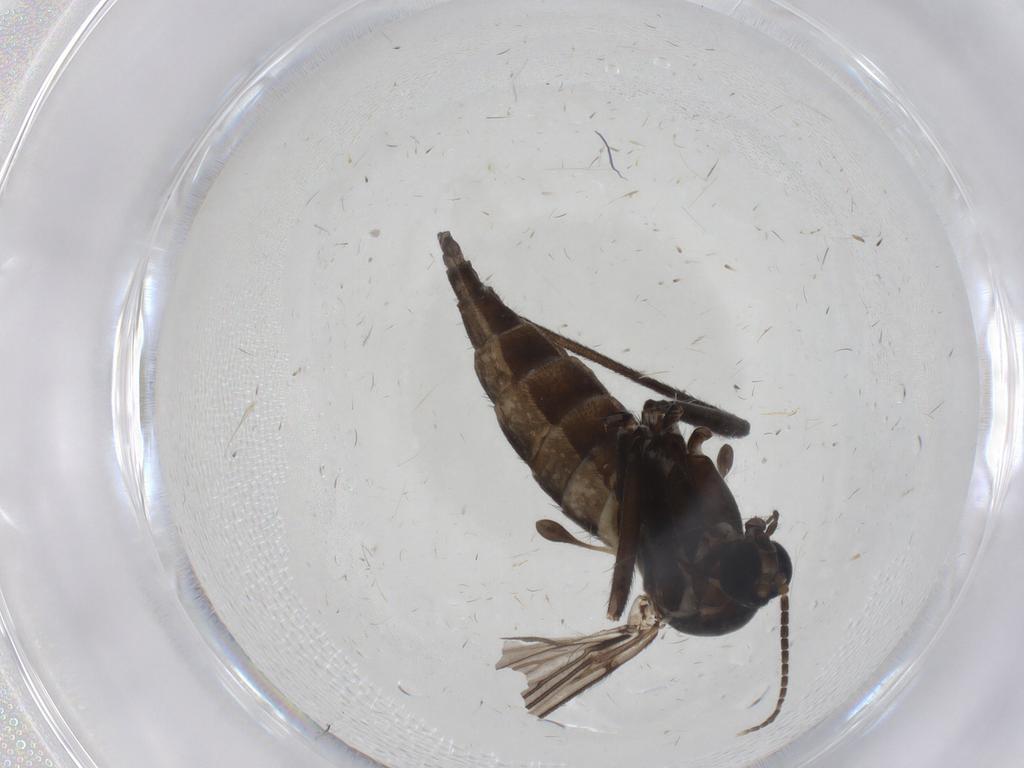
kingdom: Animalia
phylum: Arthropoda
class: Insecta
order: Diptera
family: Sciaridae
